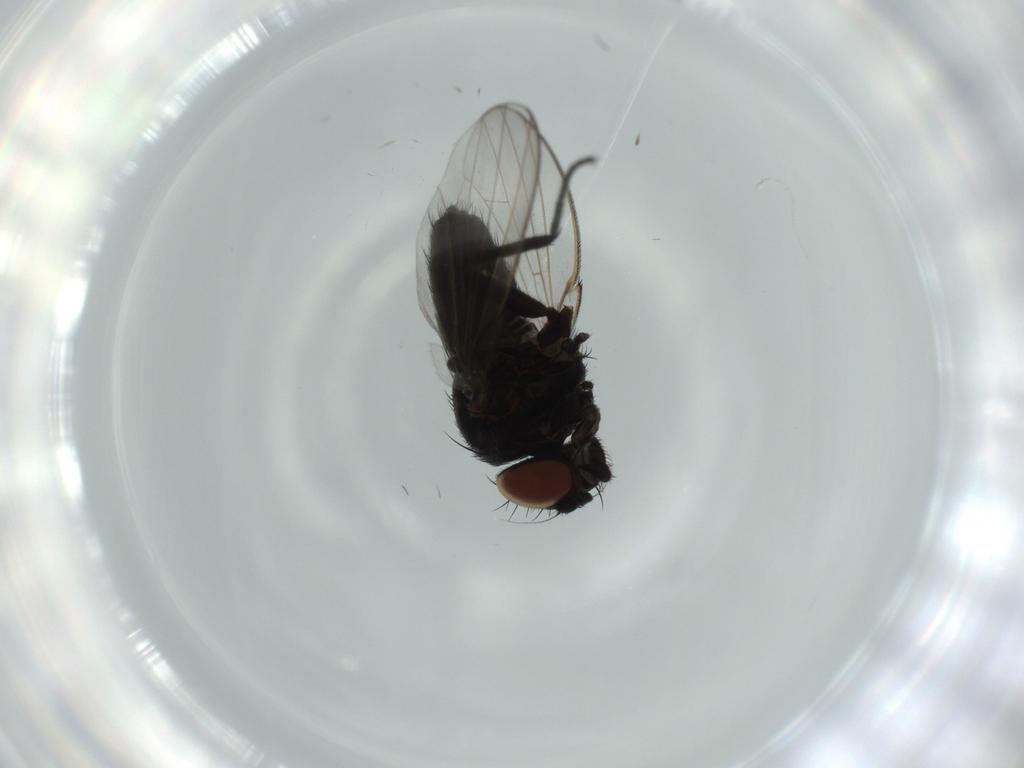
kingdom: Animalia
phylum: Arthropoda
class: Insecta
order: Diptera
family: Milichiidae
